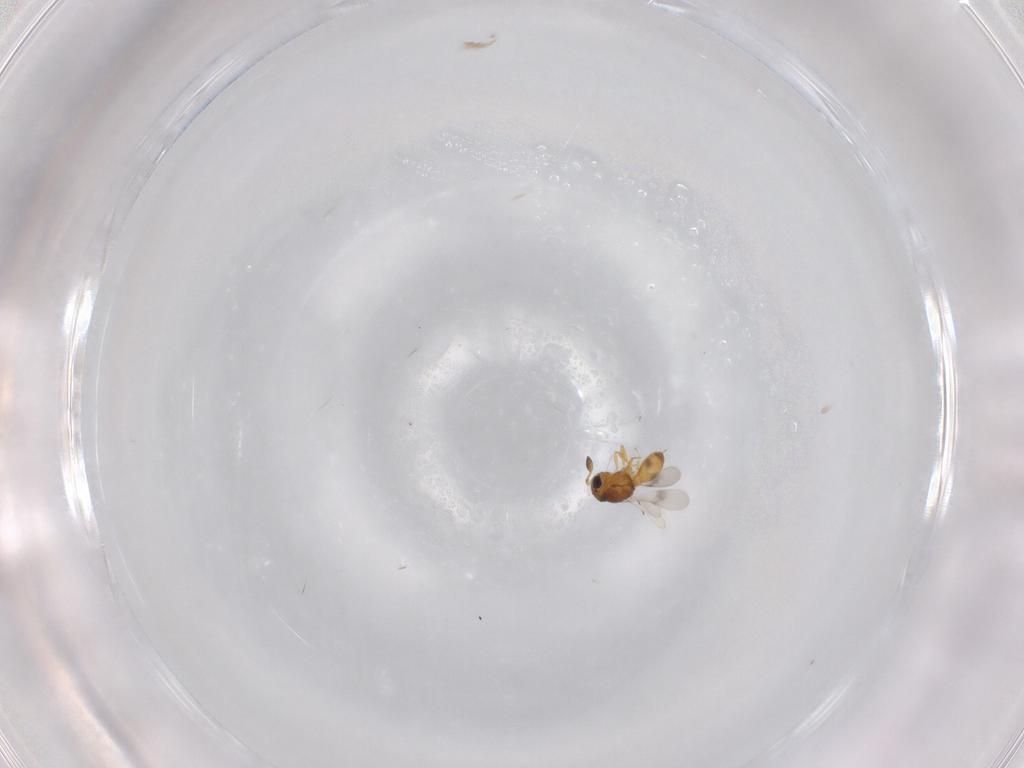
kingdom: Animalia
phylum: Arthropoda
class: Insecta
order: Hymenoptera
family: Scelionidae
